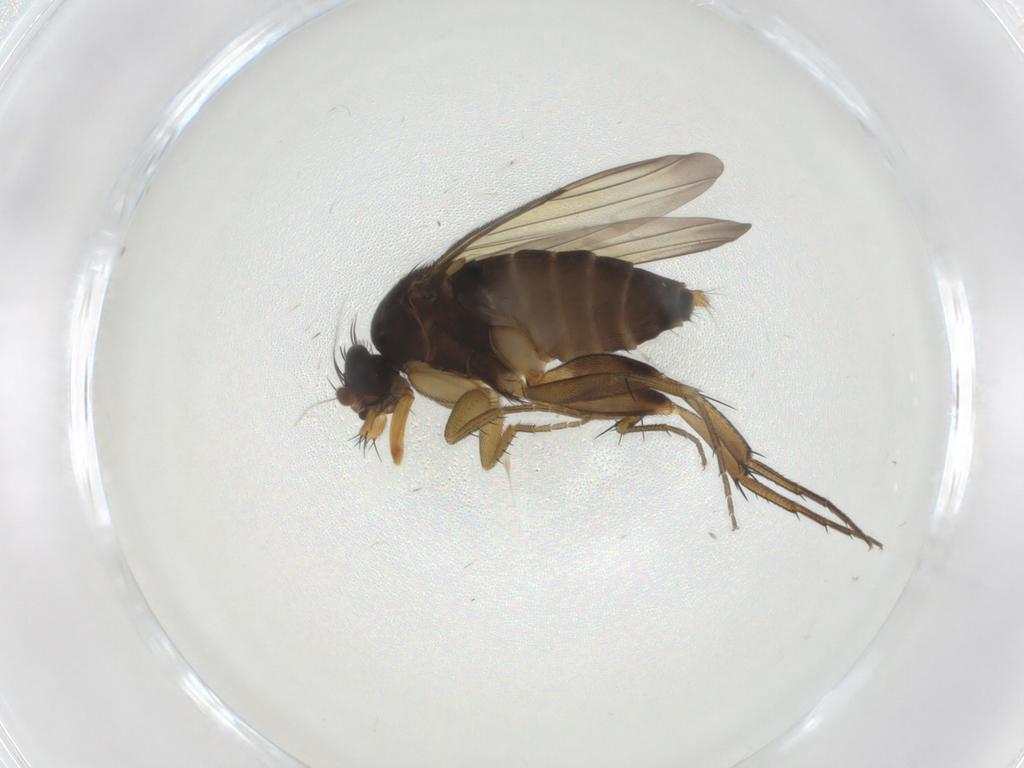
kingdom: Animalia
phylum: Arthropoda
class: Insecta
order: Diptera
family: Phoridae
